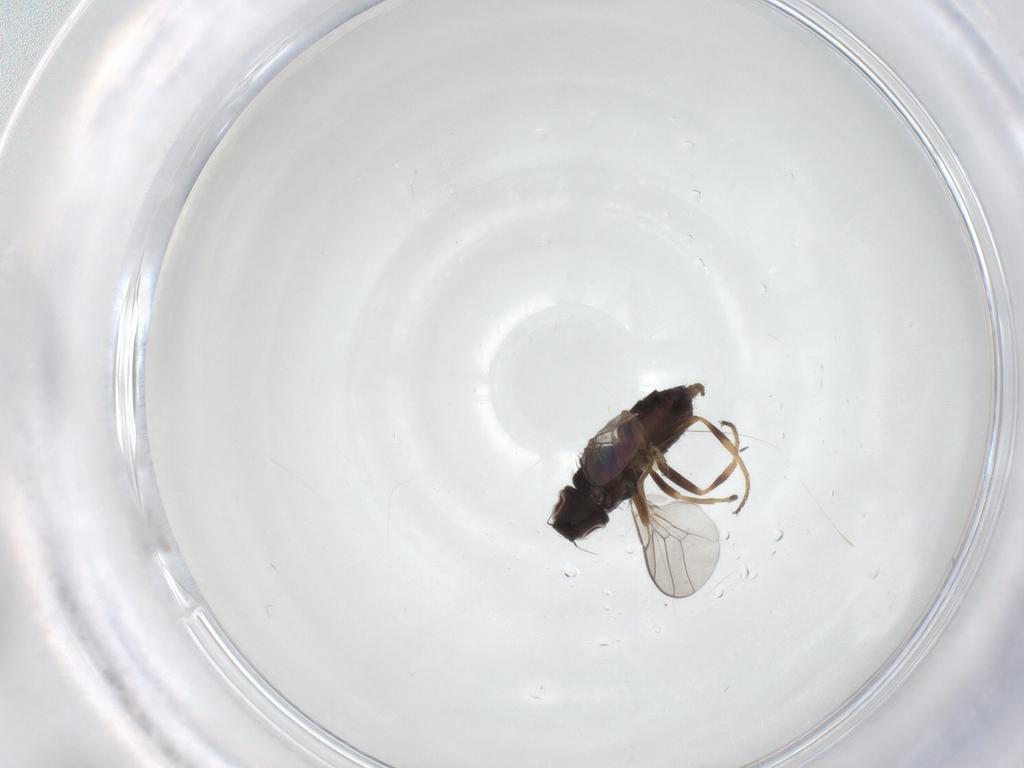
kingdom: Animalia
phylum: Arthropoda
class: Insecta
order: Diptera
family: Chloropidae
